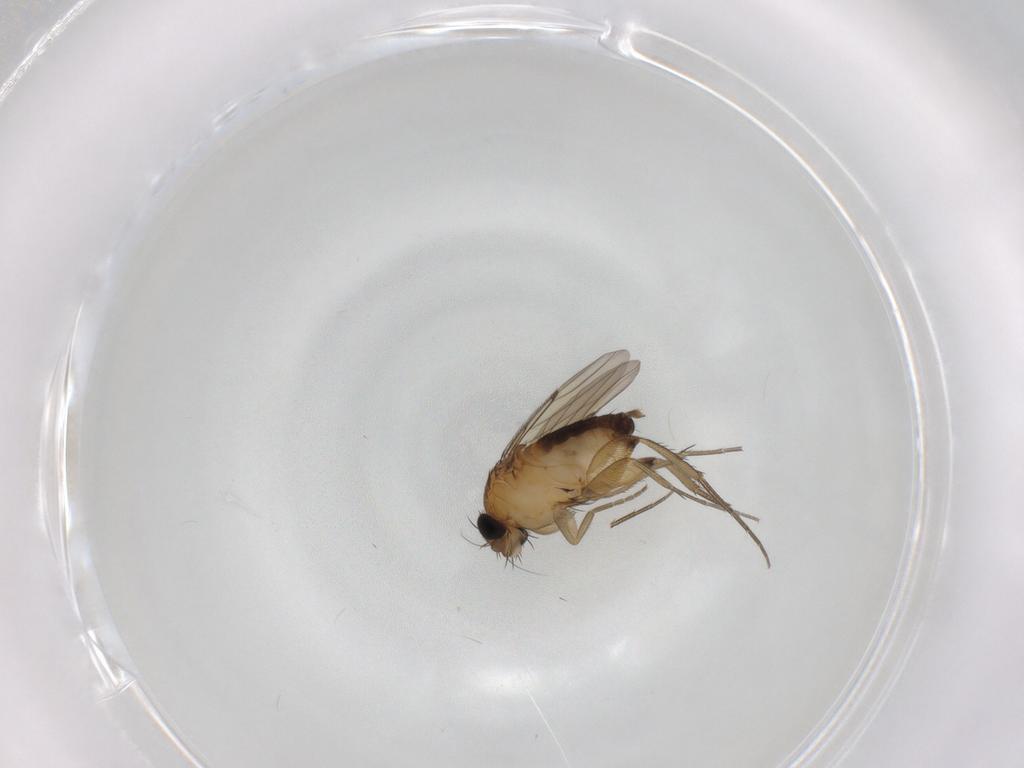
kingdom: Animalia
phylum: Arthropoda
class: Insecta
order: Diptera
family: Phoridae
